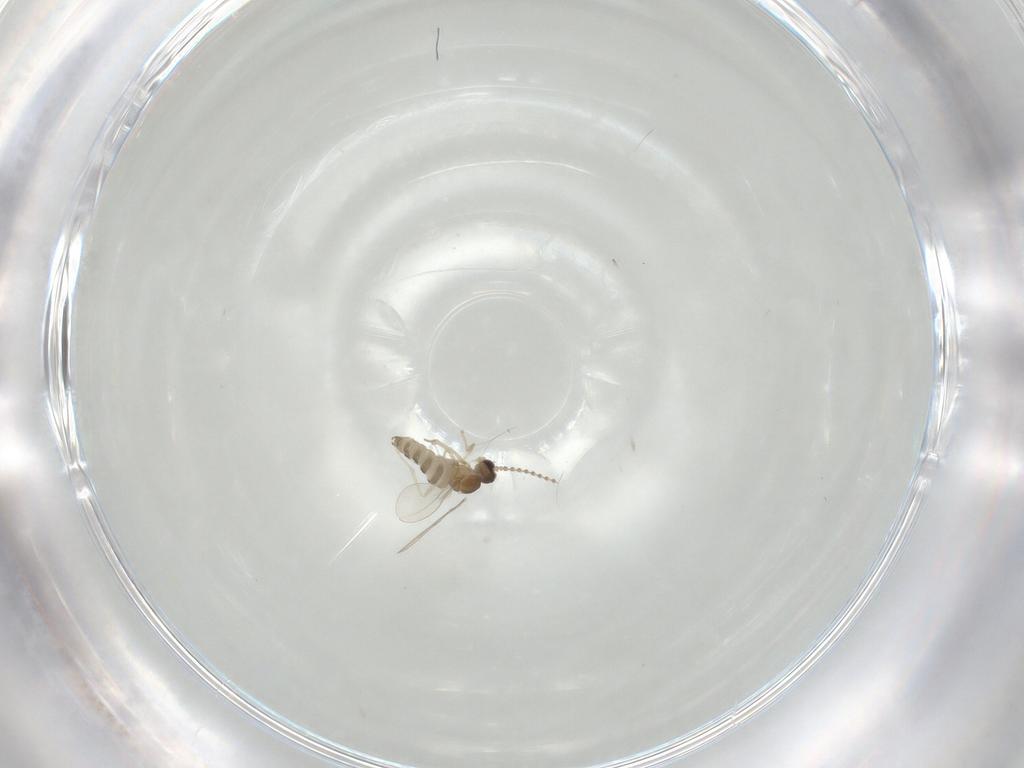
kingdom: Animalia
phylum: Arthropoda
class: Insecta
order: Diptera
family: Cecidomyiidae
